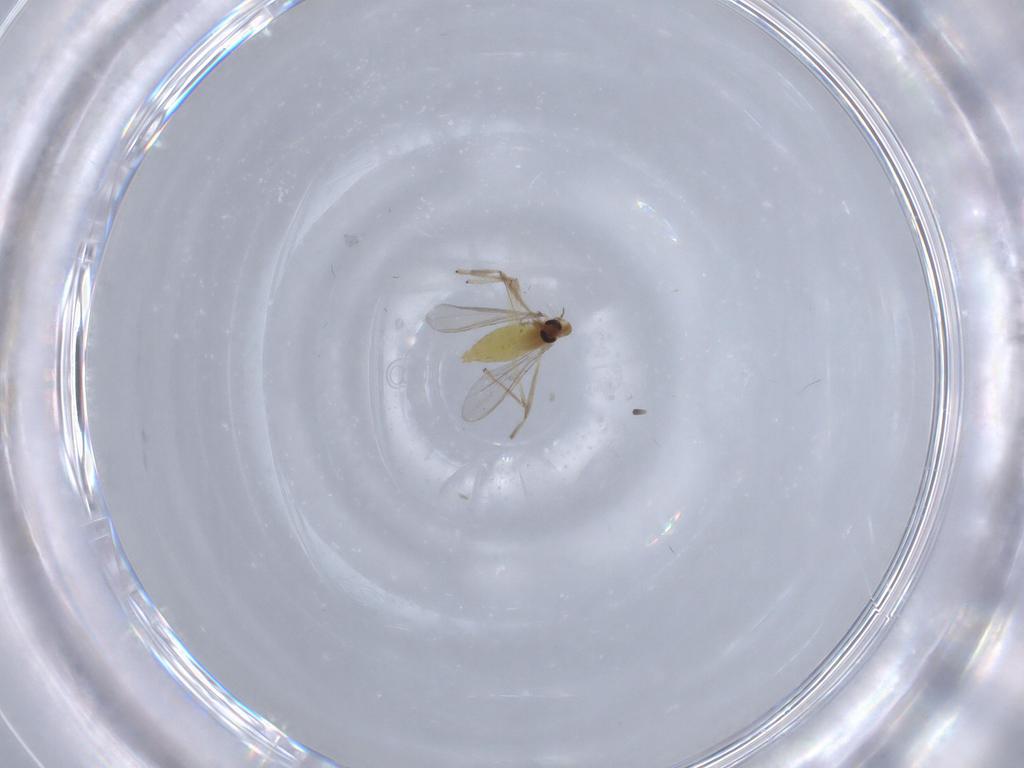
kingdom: Animalia
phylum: Arthropoda
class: Insecta
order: Diptera
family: Chironomidae
